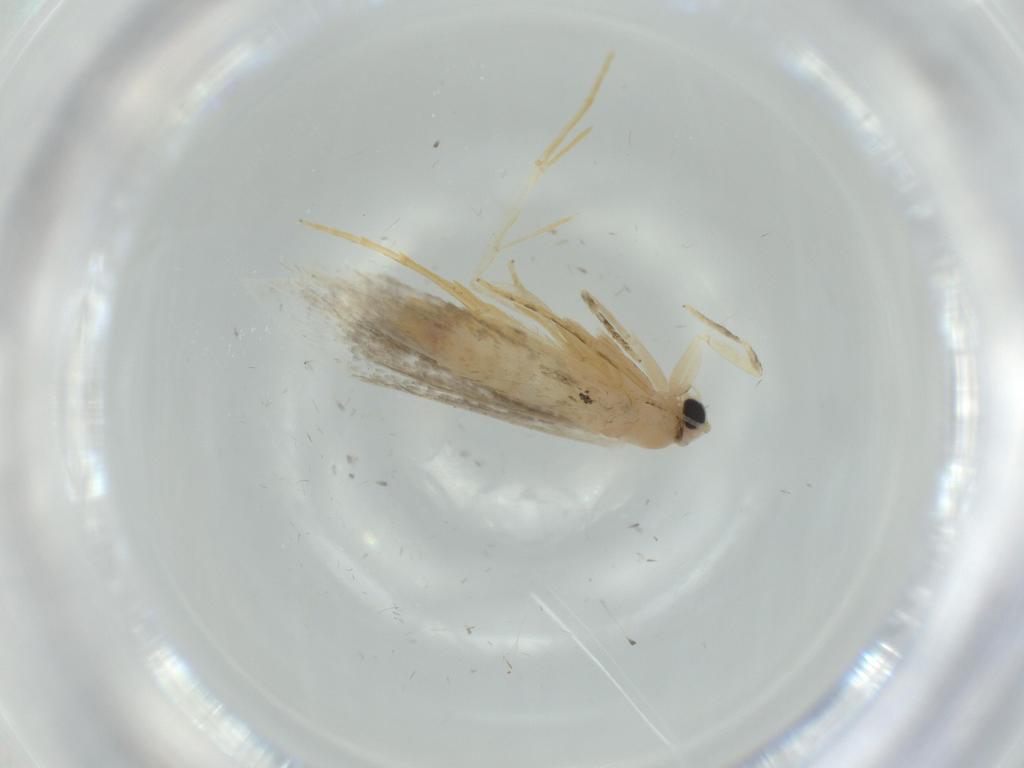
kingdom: Animalia
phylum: Arthropoda
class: Insecta
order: Lepidoptera
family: Tineidae
